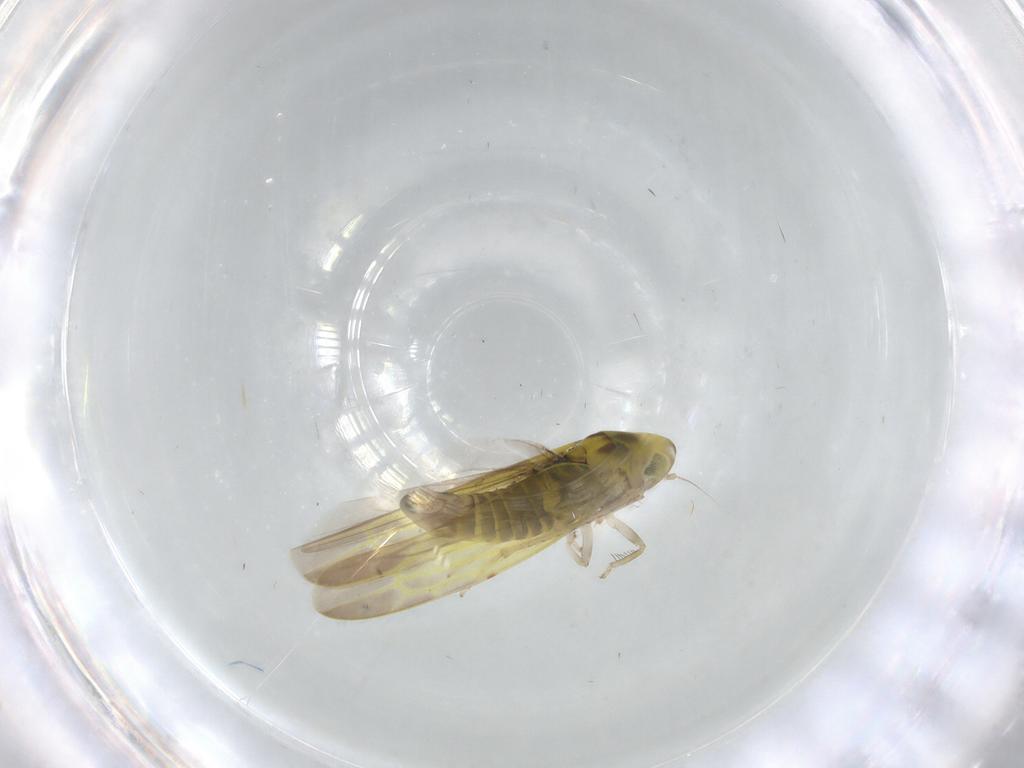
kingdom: Animalia
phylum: Arthropoda
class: Insecta
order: Hemiptera
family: Cicadellidae
